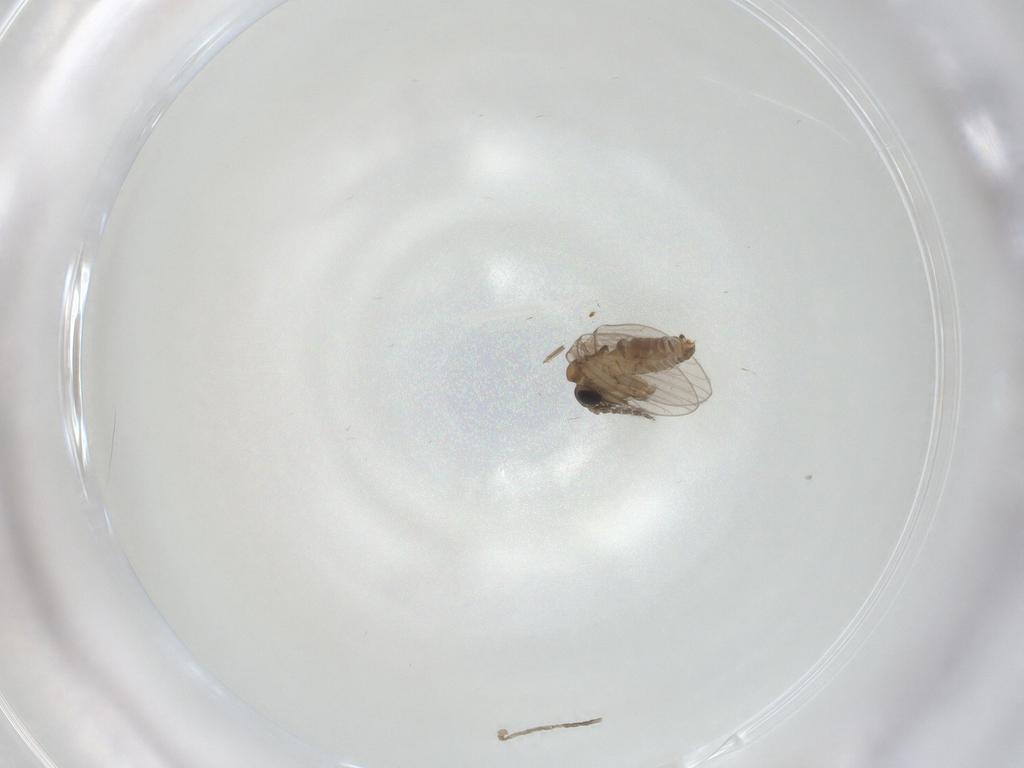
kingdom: Animalia
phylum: Arthropoda
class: Insecta
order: Diptera
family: Psychodidae
